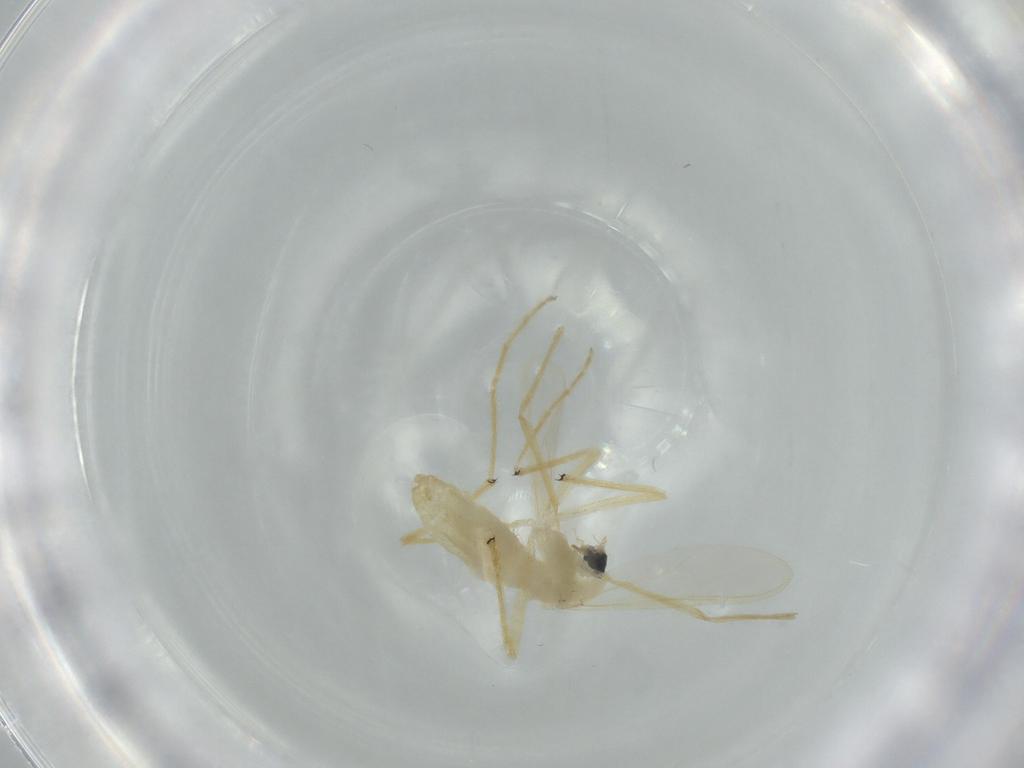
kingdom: Animalia
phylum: Arthropoda
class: Insecta
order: Diptera
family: Chironomidae
